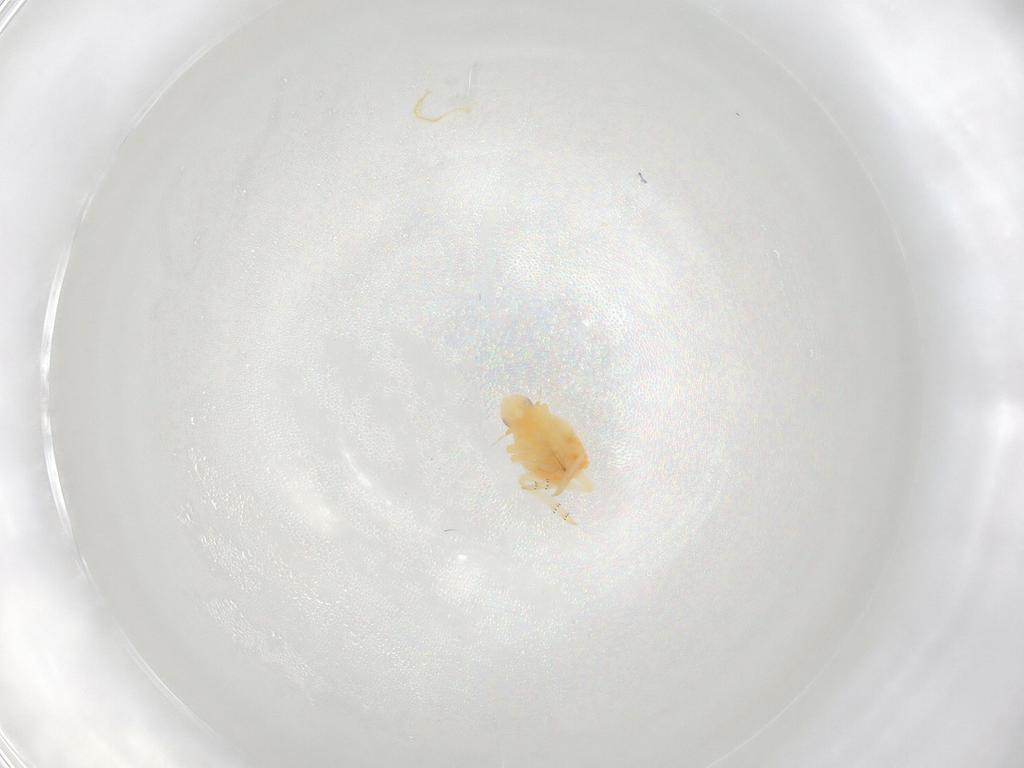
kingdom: Animalia
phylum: Arthropoda
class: Insecta
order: Hemiptera
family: Flatidae
